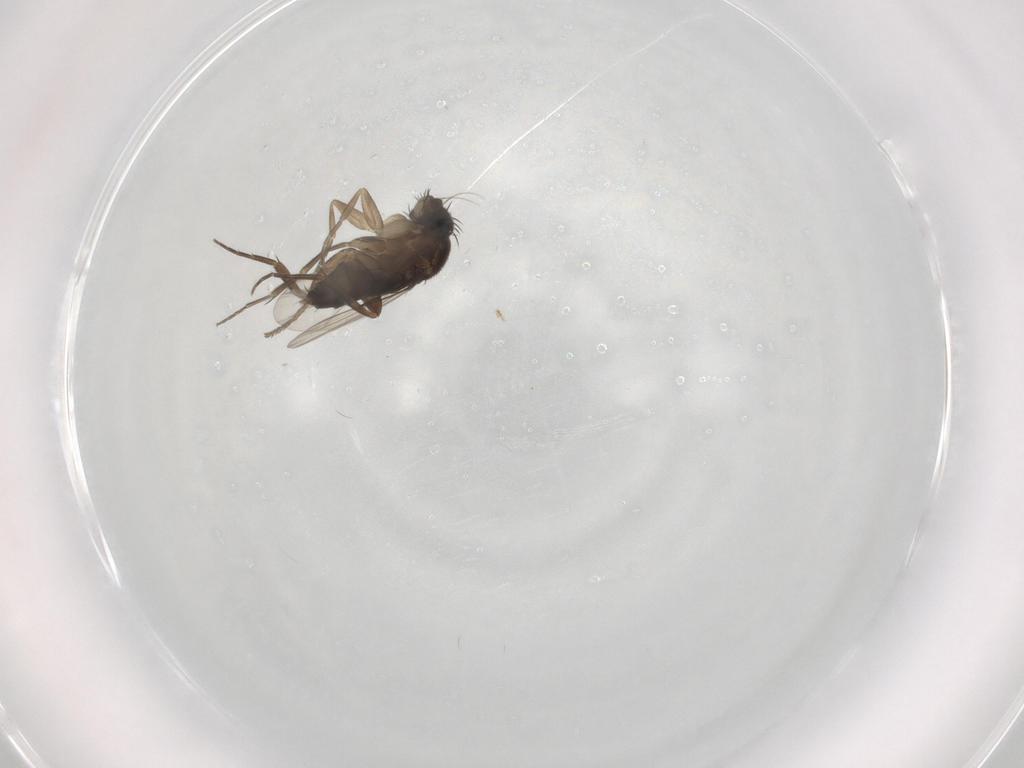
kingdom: Animalia
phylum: Arthropoda
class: Insecta
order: Diptera
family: Phoridae
